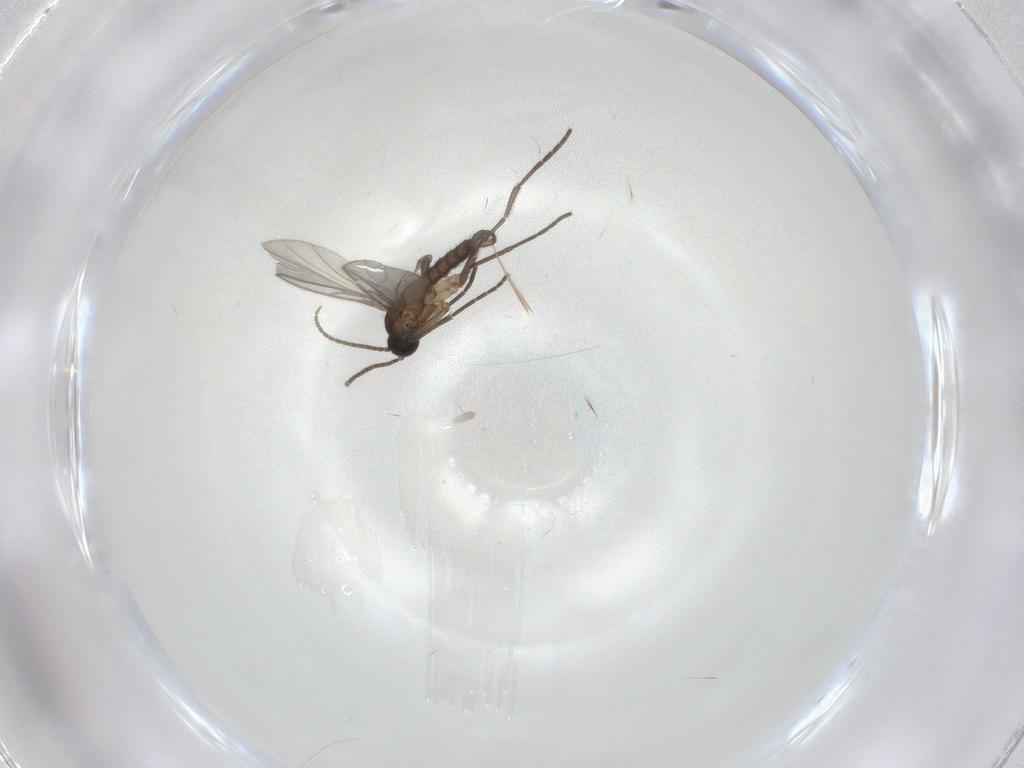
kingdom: Animalia
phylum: Arthropoda
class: Insecta
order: Diptera
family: Sciaridae
